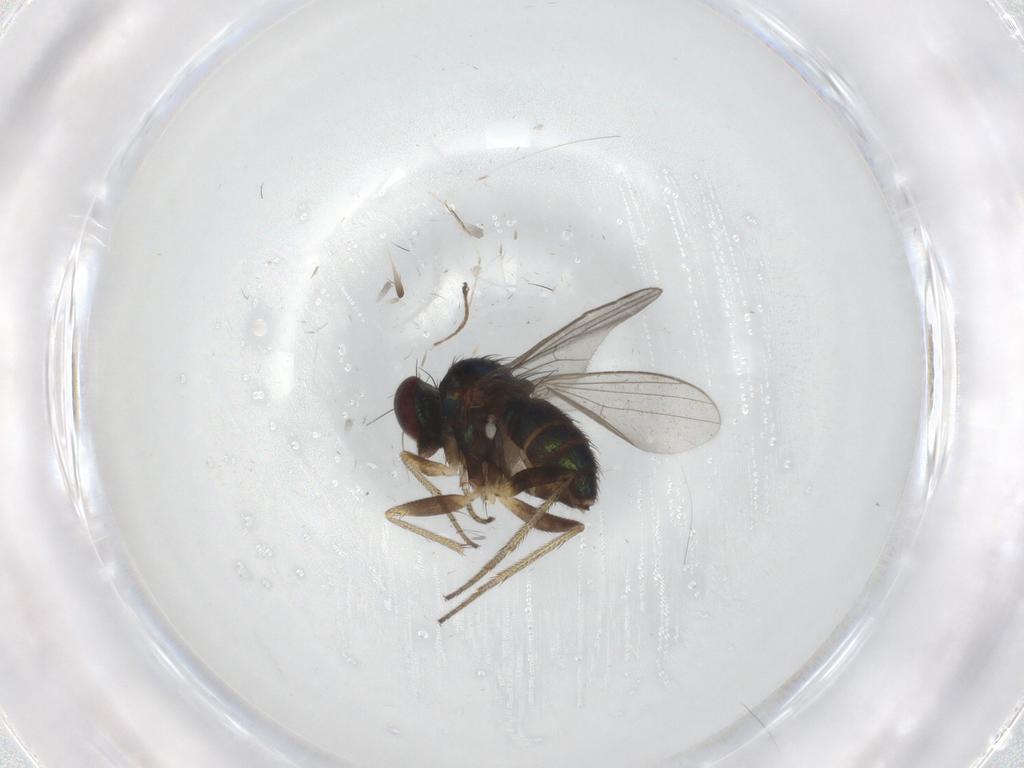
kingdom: Animalia
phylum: Arthropoda
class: Insecta
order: Diptera
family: Dolichopodidae
